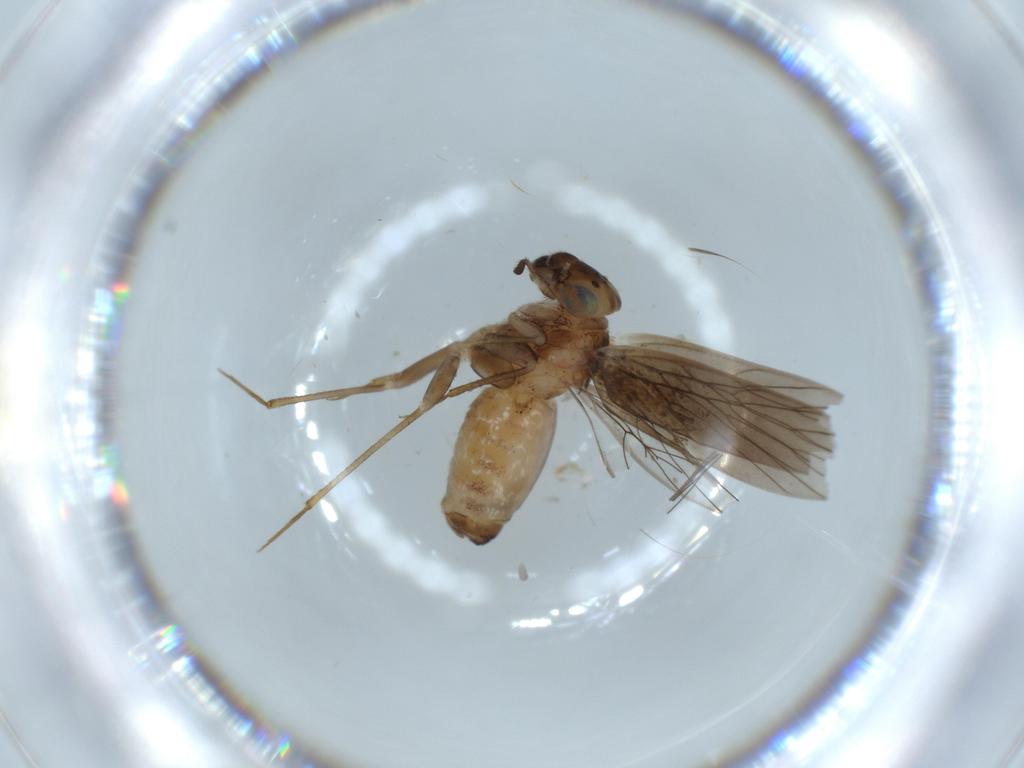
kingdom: Animalia
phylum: Arthropoda
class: Insecta
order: Psocodea
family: Lepidopsocidae
